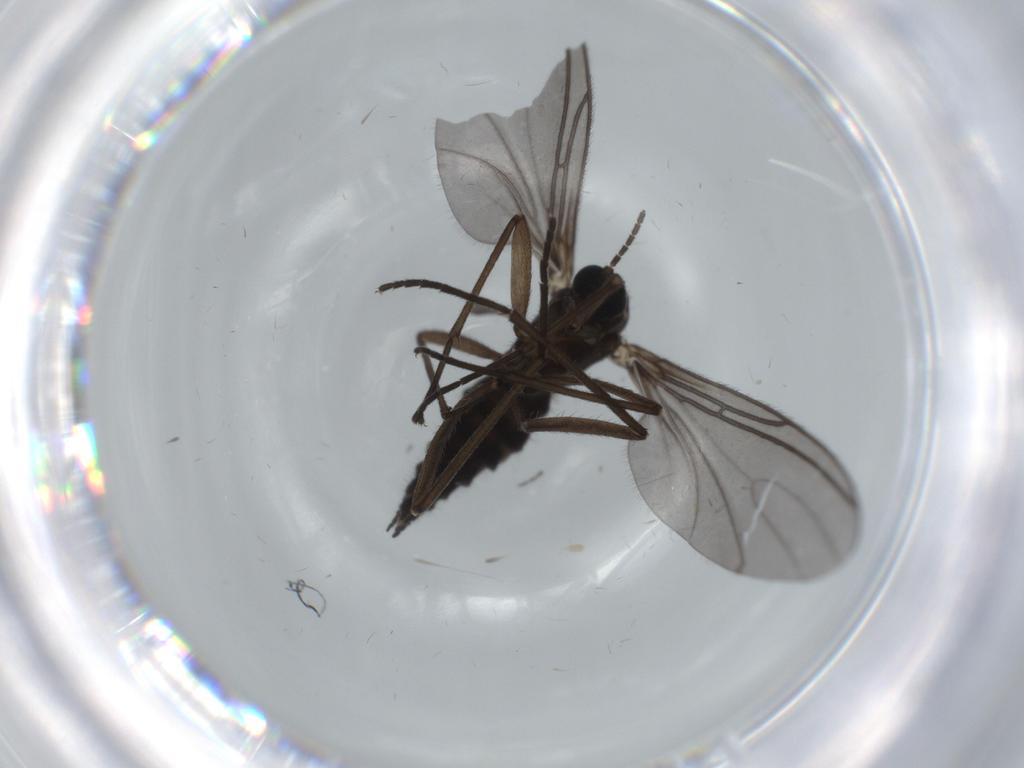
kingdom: Animalia
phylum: Arthropoda
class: Insecta
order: Diptera
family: Sciaridae
